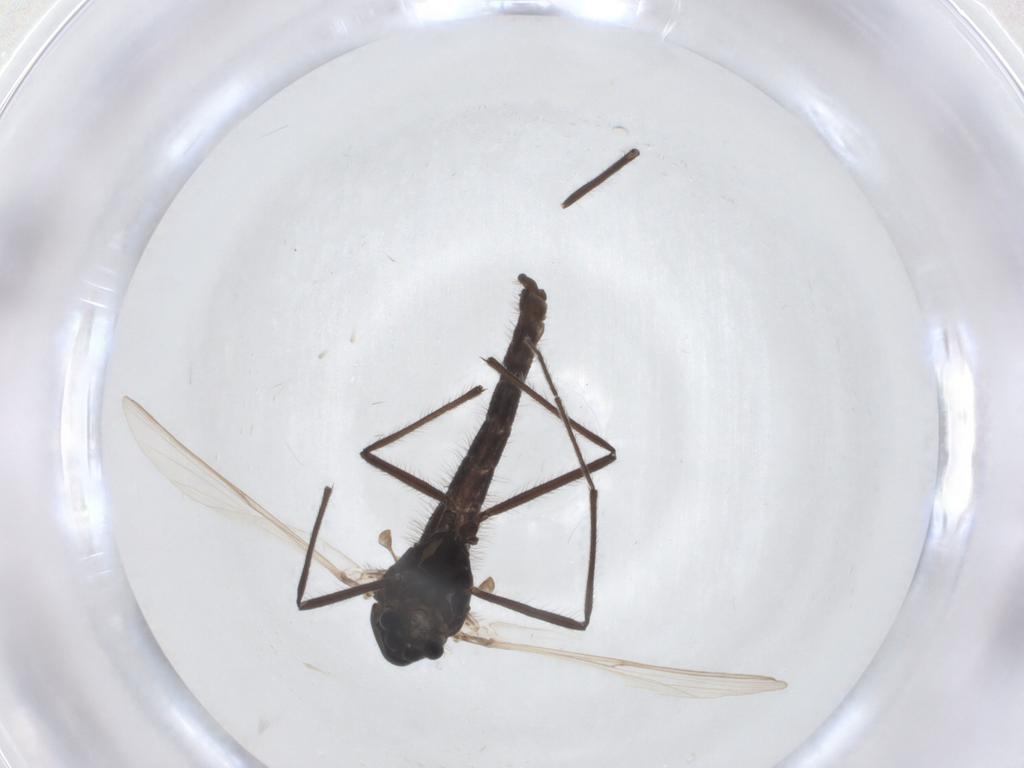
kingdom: Animalia
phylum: Arthropoda
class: Insecta
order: Diptera
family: Chironomidae
